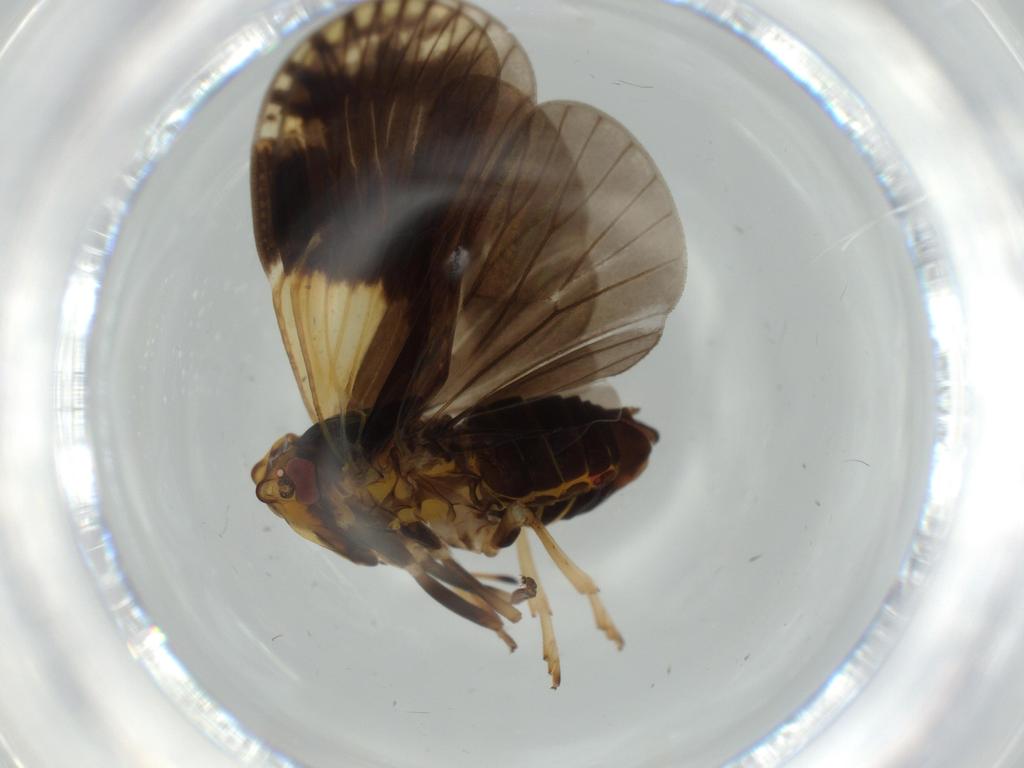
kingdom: Animalia
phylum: Arthropoda
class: Insecta
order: Hemiptera
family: Cixiidae
